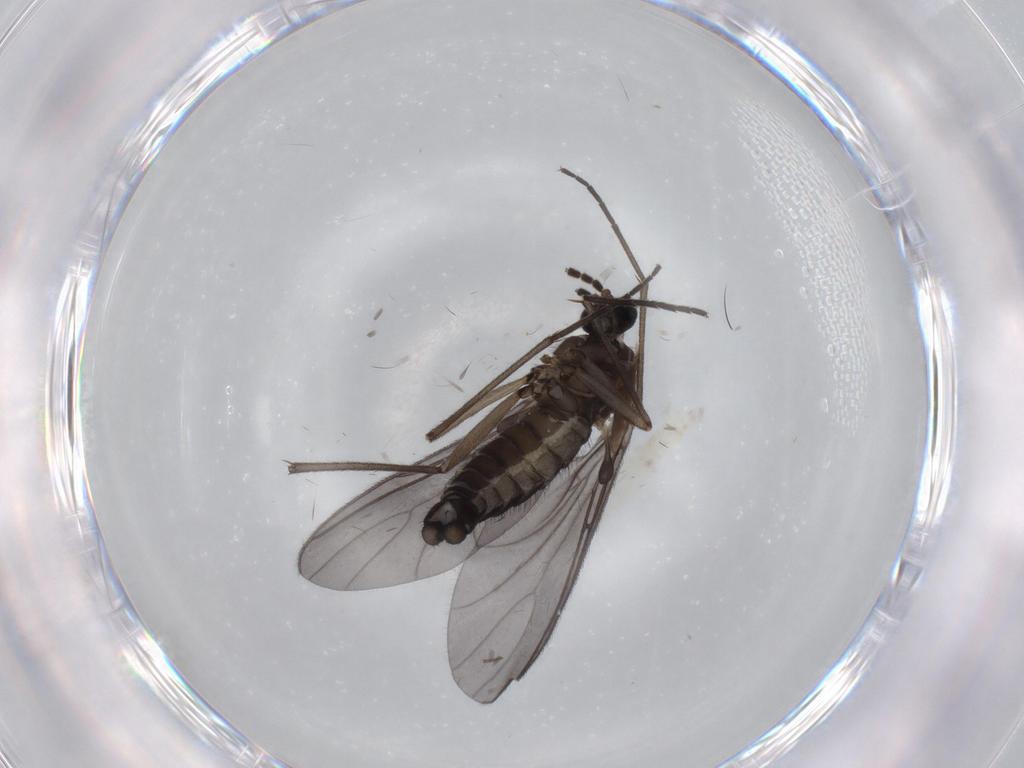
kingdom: Animalia
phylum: Arthropoda
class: Insecta
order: Diptera
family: Sciaridae
